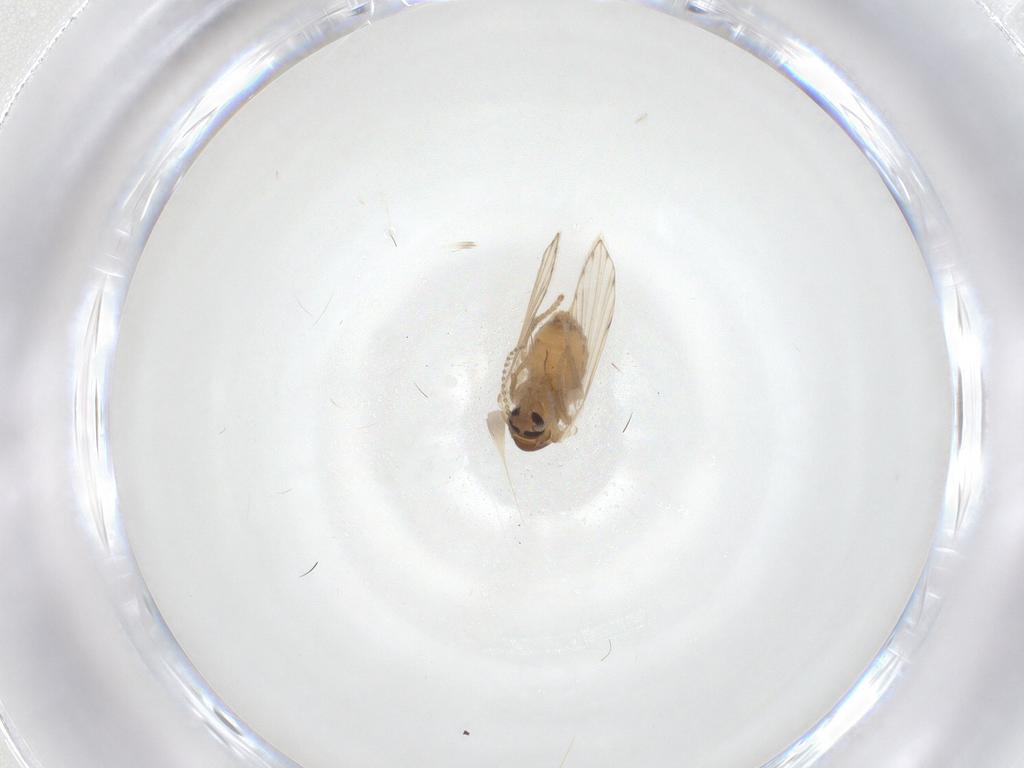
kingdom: Animalia
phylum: Arthropoda
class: Insecta
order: Diptera
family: Psychodidae
